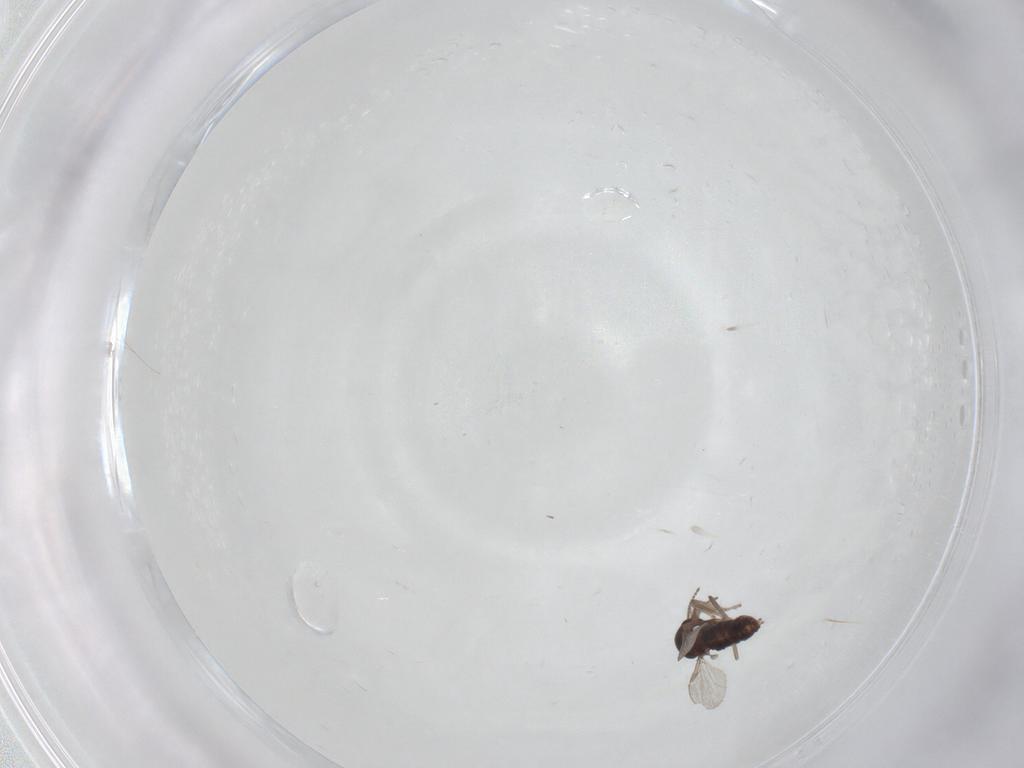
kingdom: Animalia
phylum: Arthropoda
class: Insecta
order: Diptera
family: Ceratopogonidae
